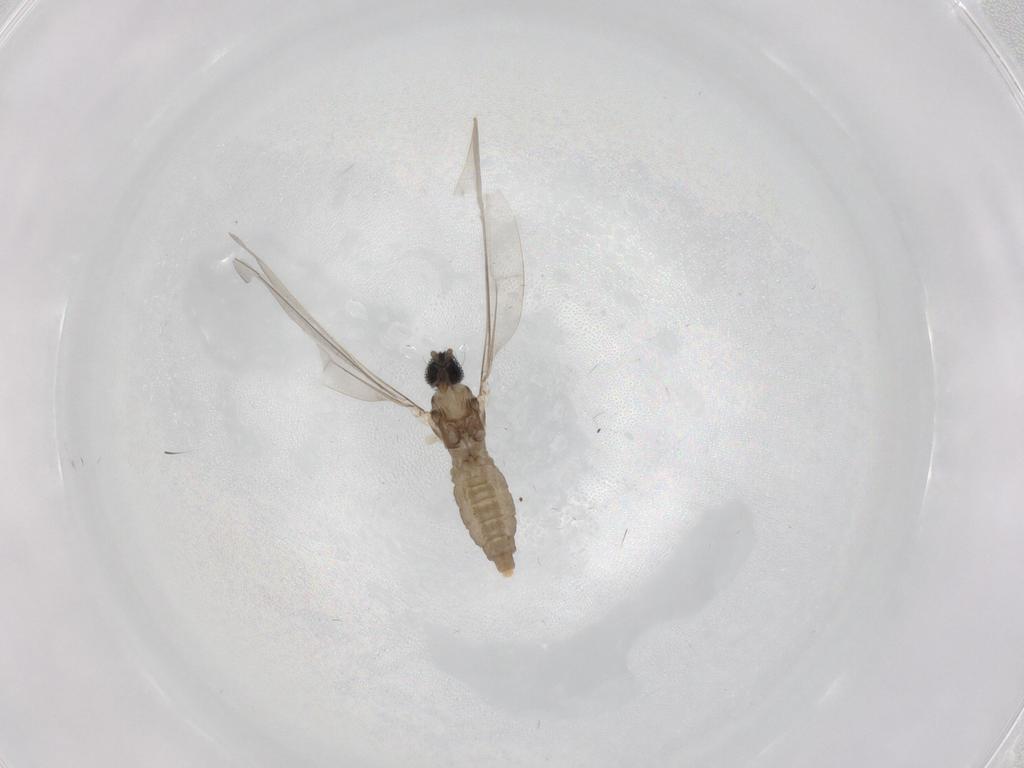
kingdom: Animalia
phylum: Arthropoda
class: Insecta
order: Diptera
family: Cecidomyiidae
